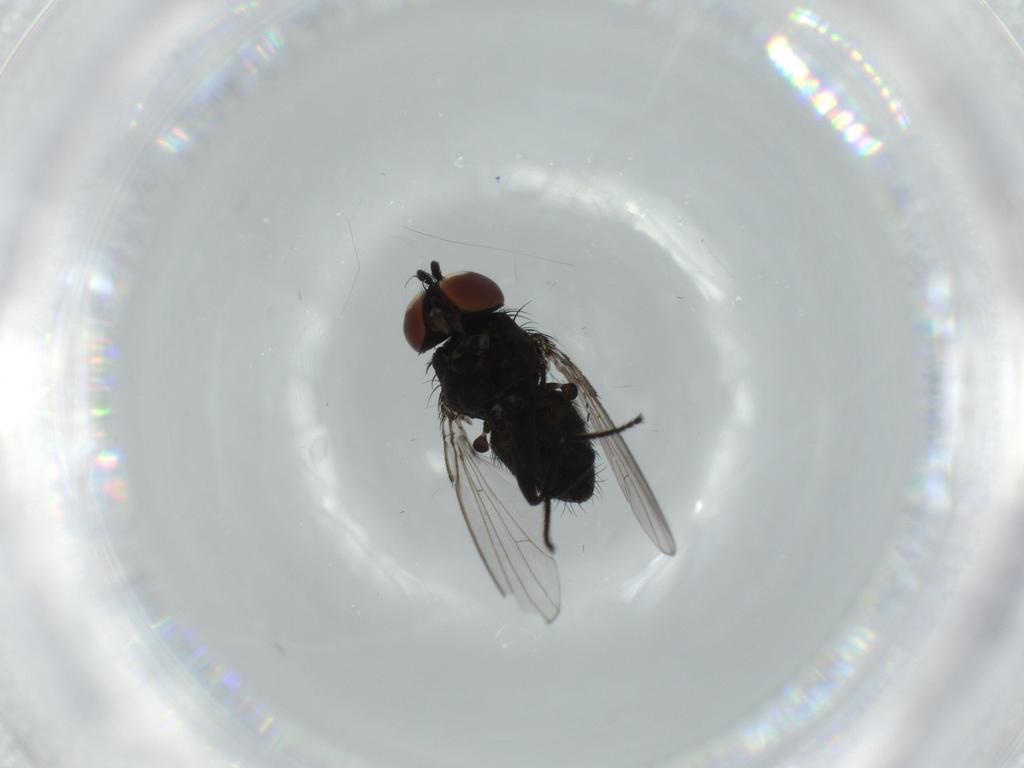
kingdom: Animalia
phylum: Arthropoda
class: Insecta
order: Diptera
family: Milichiidae
